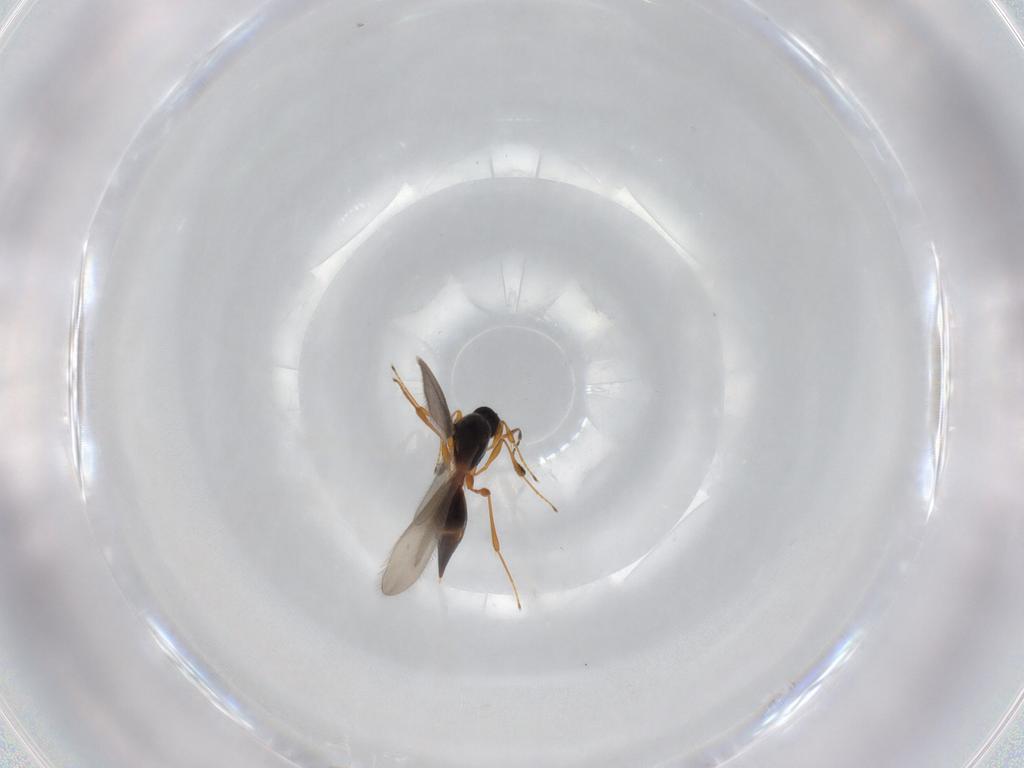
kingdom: Animalia
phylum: Arthropoda
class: Insecta
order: Hymenoptera
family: Platygastridae
